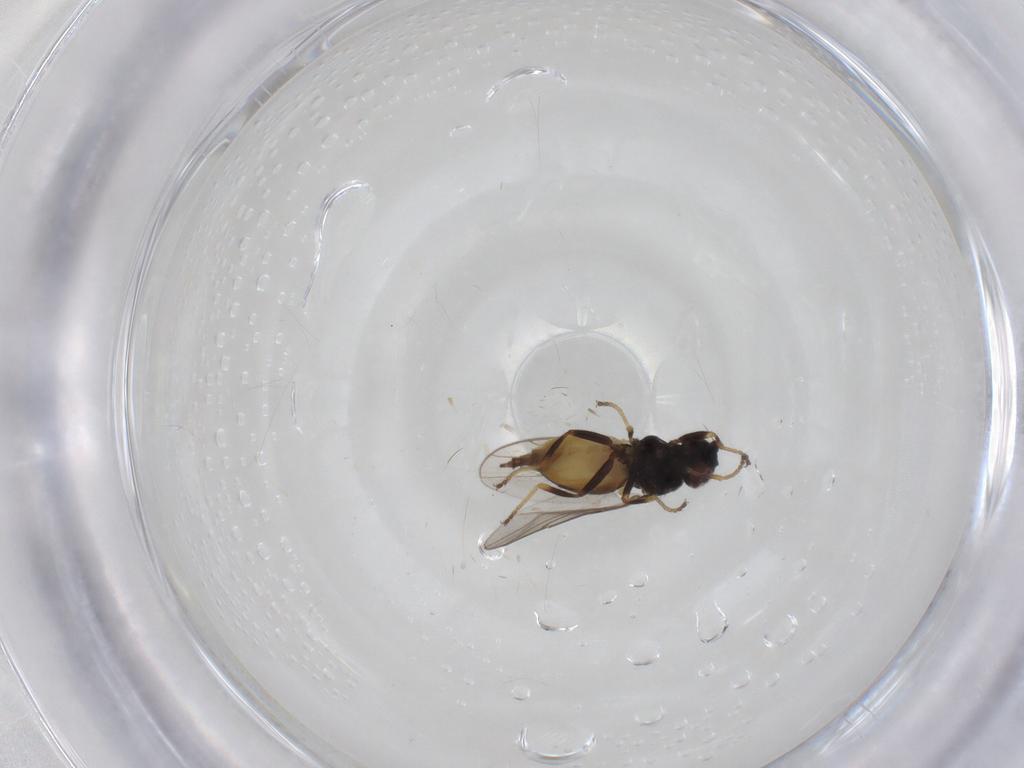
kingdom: Animalia
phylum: Arthropoda
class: Insecta
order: Diptera
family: Chloropidae
